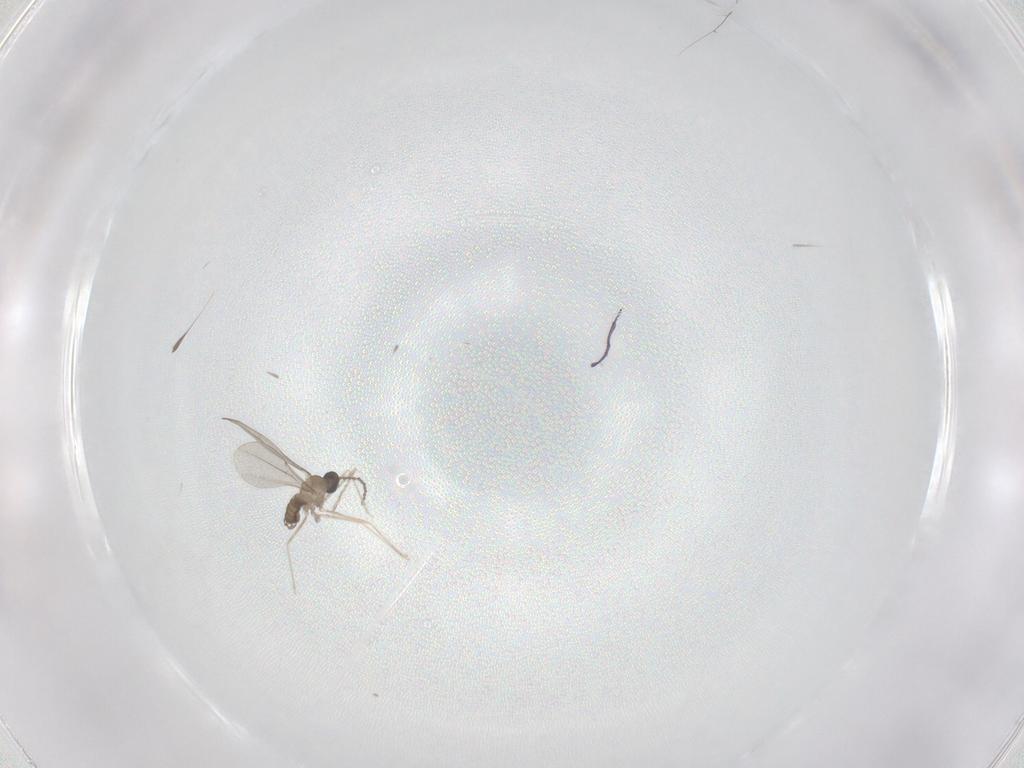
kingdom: Animalia
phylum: Arthropoda
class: Insecta
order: Diptera
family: Cecidomyiidae
